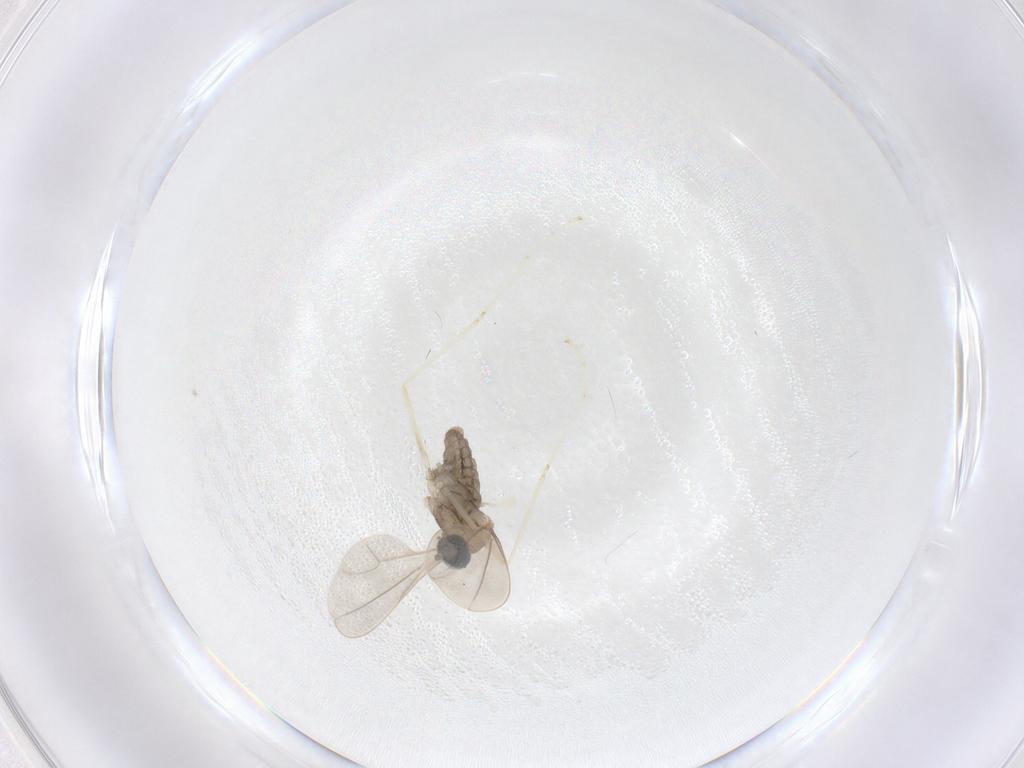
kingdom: Animalia
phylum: Arthropoda
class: Insecta
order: Diptera
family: Cecidomyiidae
